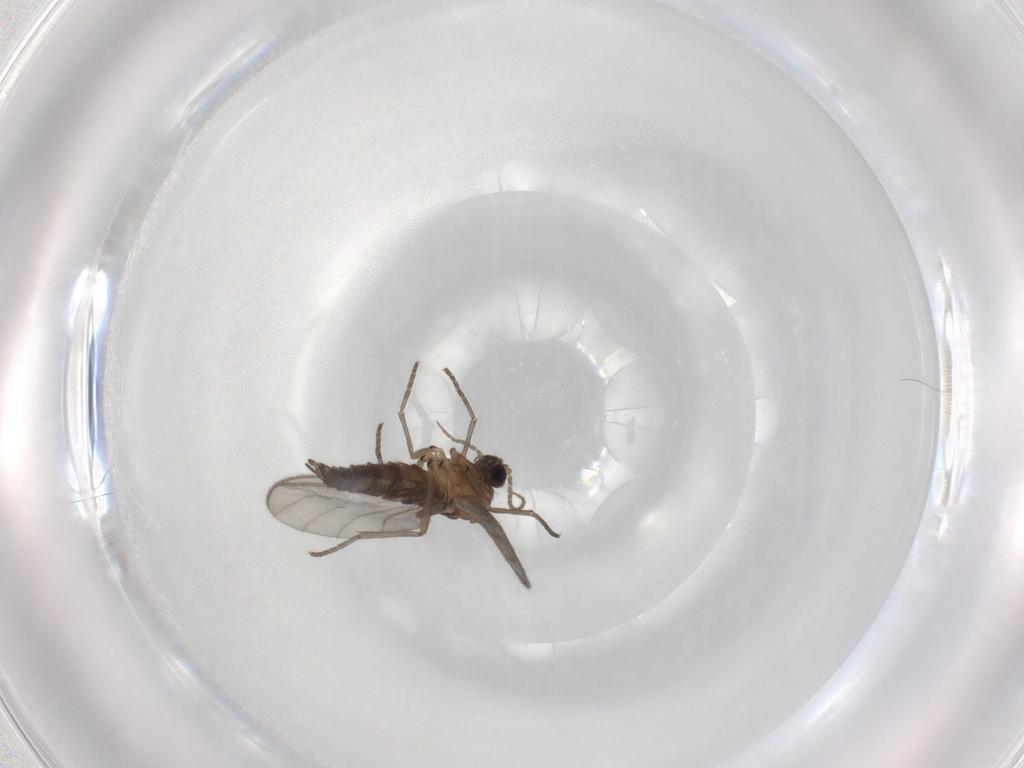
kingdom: Animalia
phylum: Arthropoda
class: Insecta
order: Diptera
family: Sciaridae
